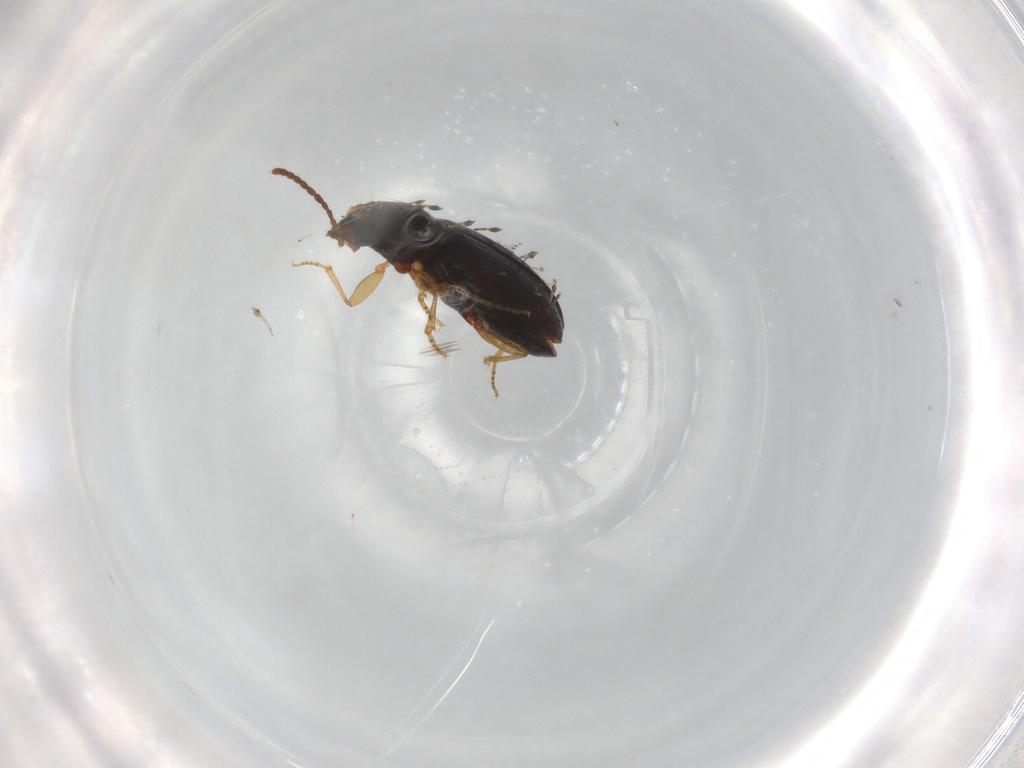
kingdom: Animalia
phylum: Arthropoda
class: Insecta
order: Coleoptera
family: Carabidae
